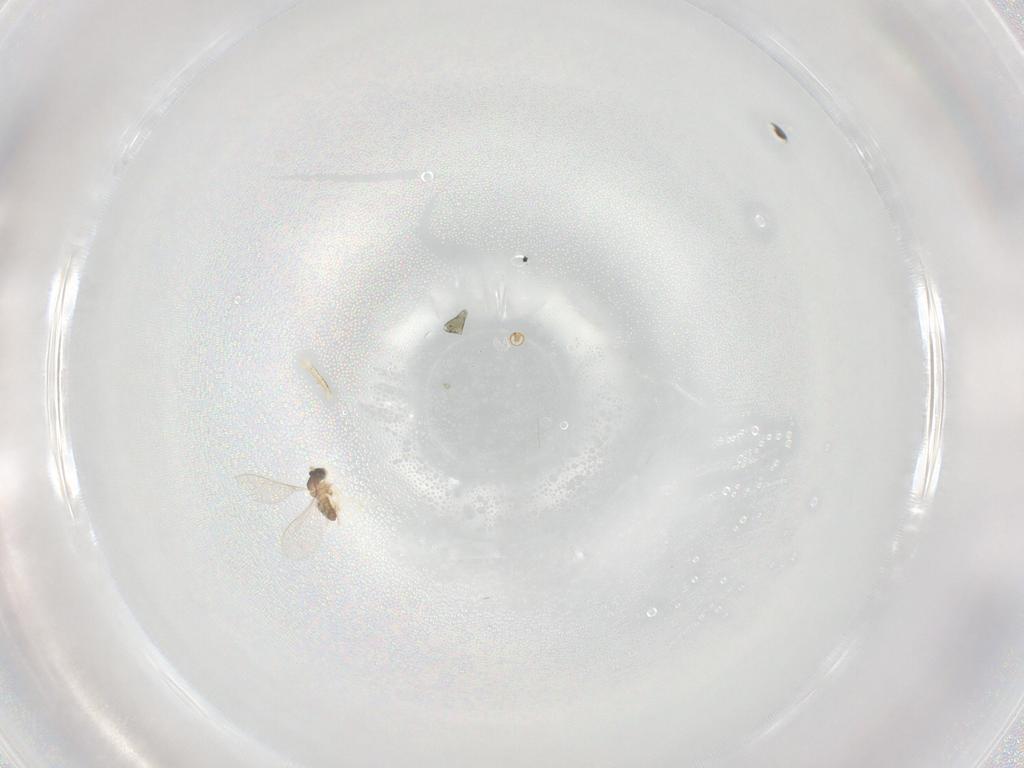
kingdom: Animalia
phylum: Arthropoda
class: Insecta
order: Diptera
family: Cecidomyiidae
